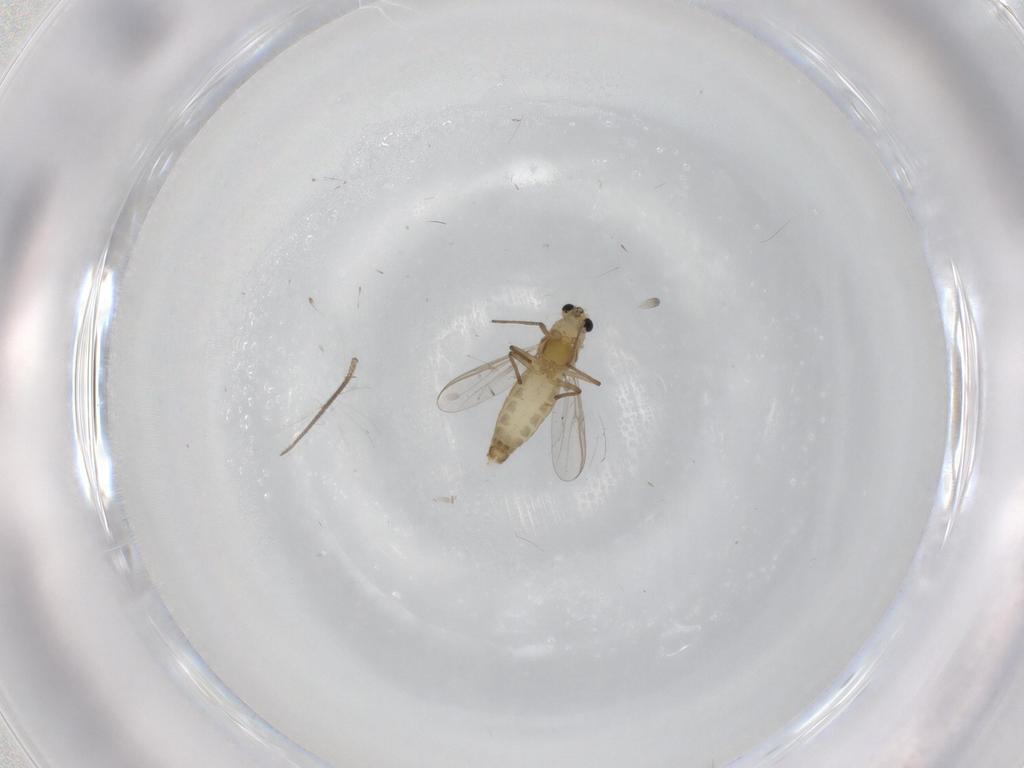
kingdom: Animalia
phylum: Arthropoda
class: Insecta
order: Diptera
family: Chironomidae
